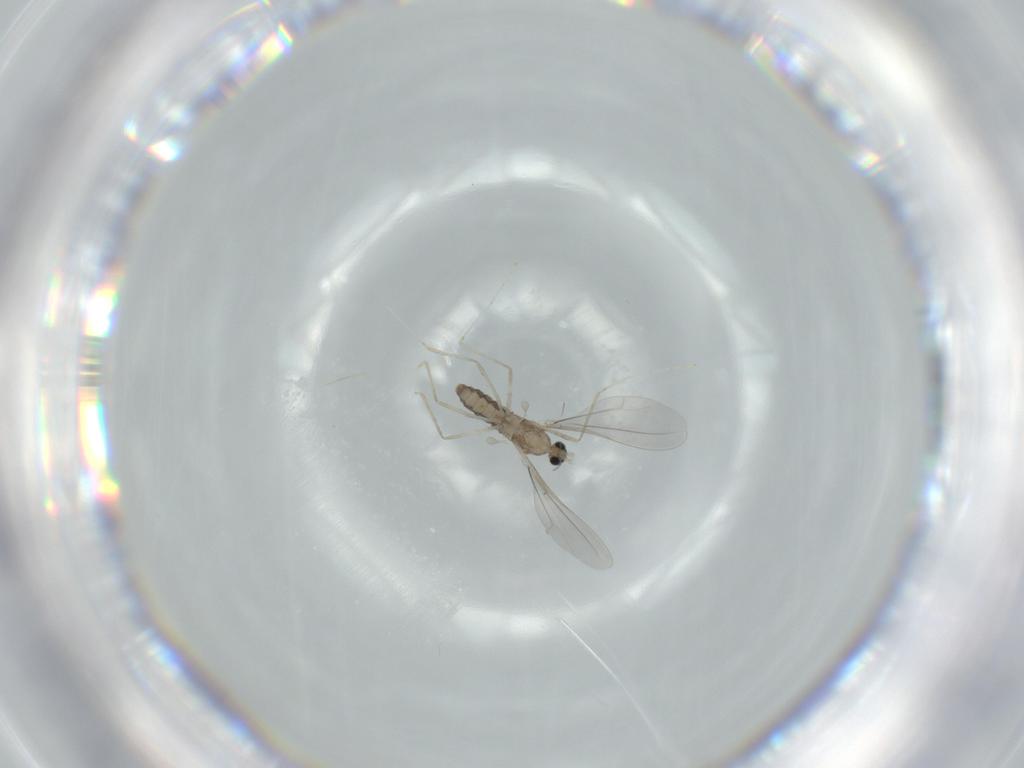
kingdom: Animalia
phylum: Arthropoda
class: Insecta
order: Diptera
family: Cecidomyiidae
